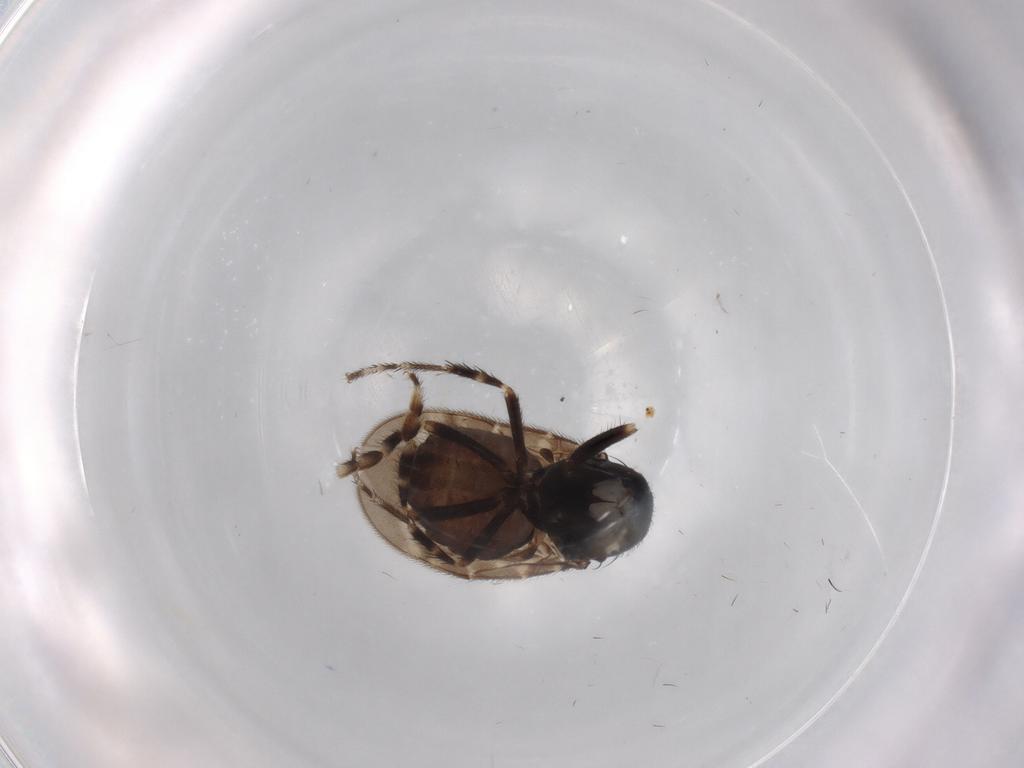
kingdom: Animalia
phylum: Arthropoda
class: Insecta
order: Diptera
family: Sphaeroceridae
